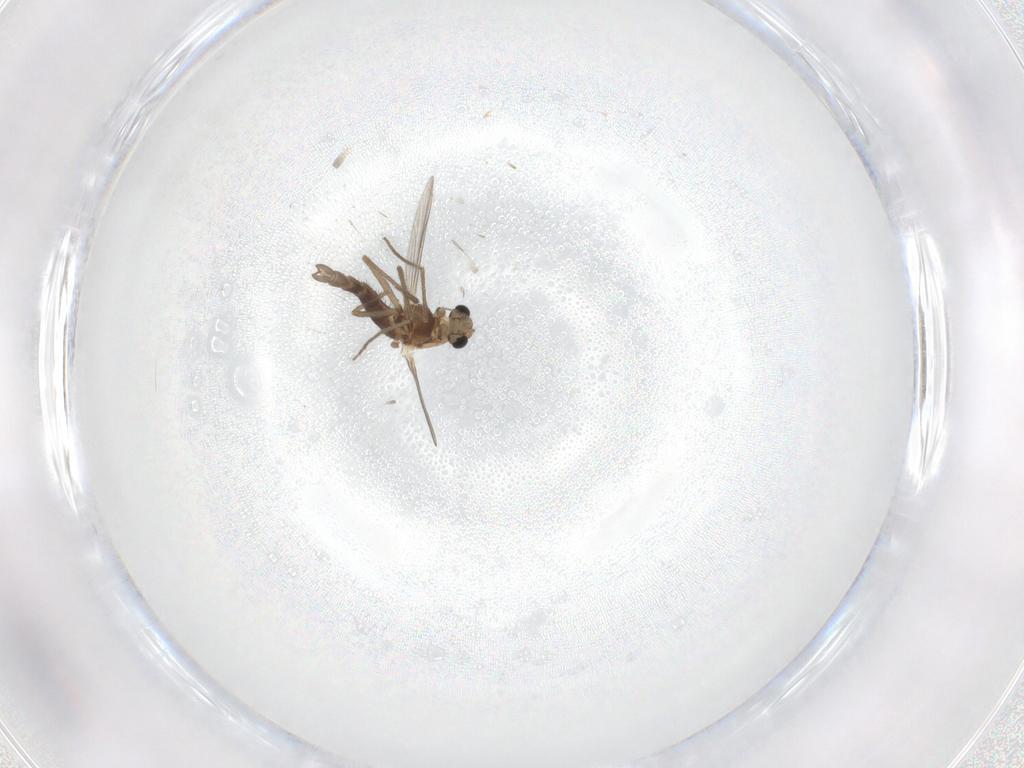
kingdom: Animalia
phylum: Arthropoda
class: Insecta
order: Diptera
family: Chironomidae
